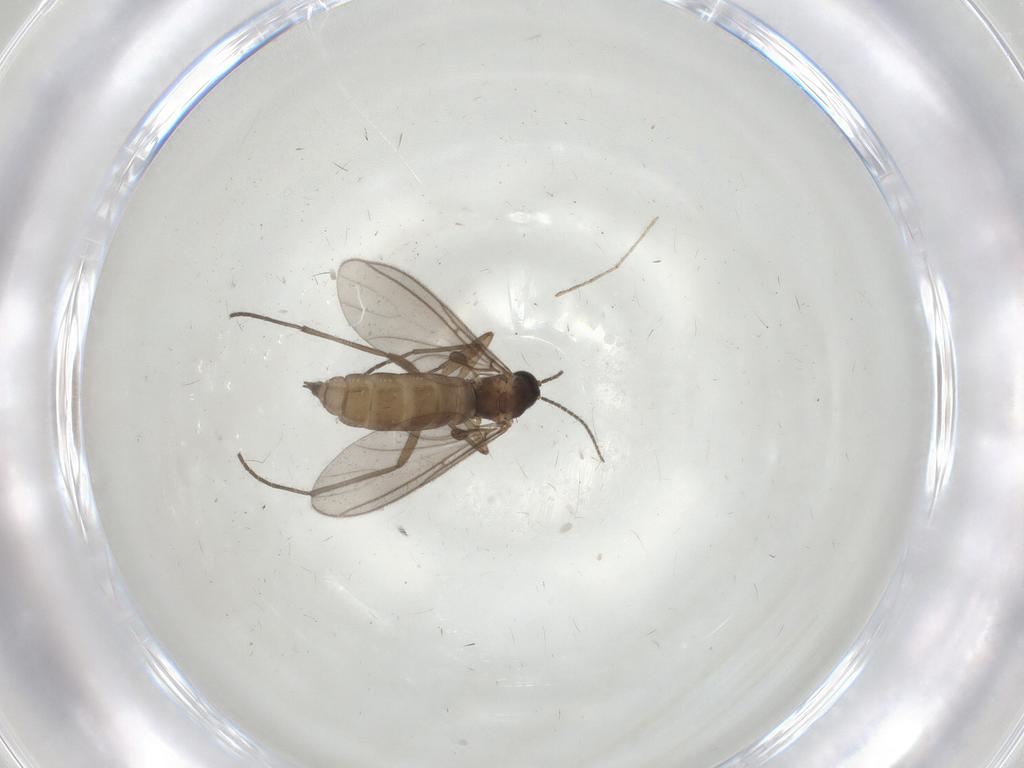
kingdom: Animalia
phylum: Arthropoda
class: Insecta
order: Diptera
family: Sciaridae
